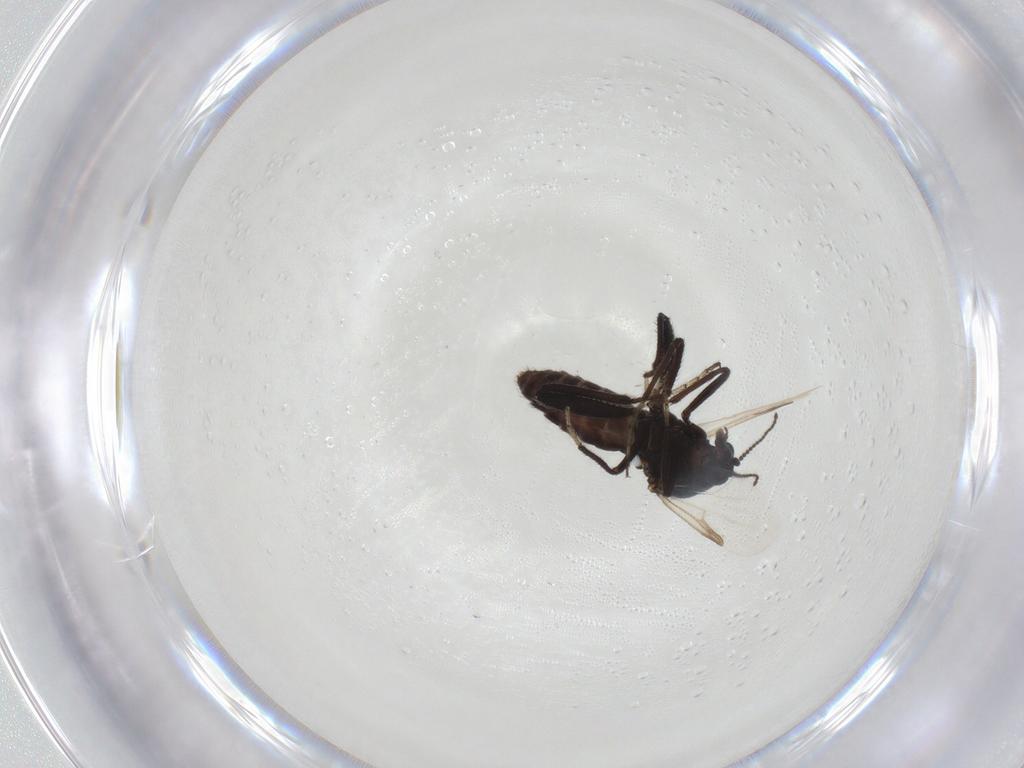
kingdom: Animalia
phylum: Arthropoda
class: Insecta
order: Diptera
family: Ceratopogonidae
